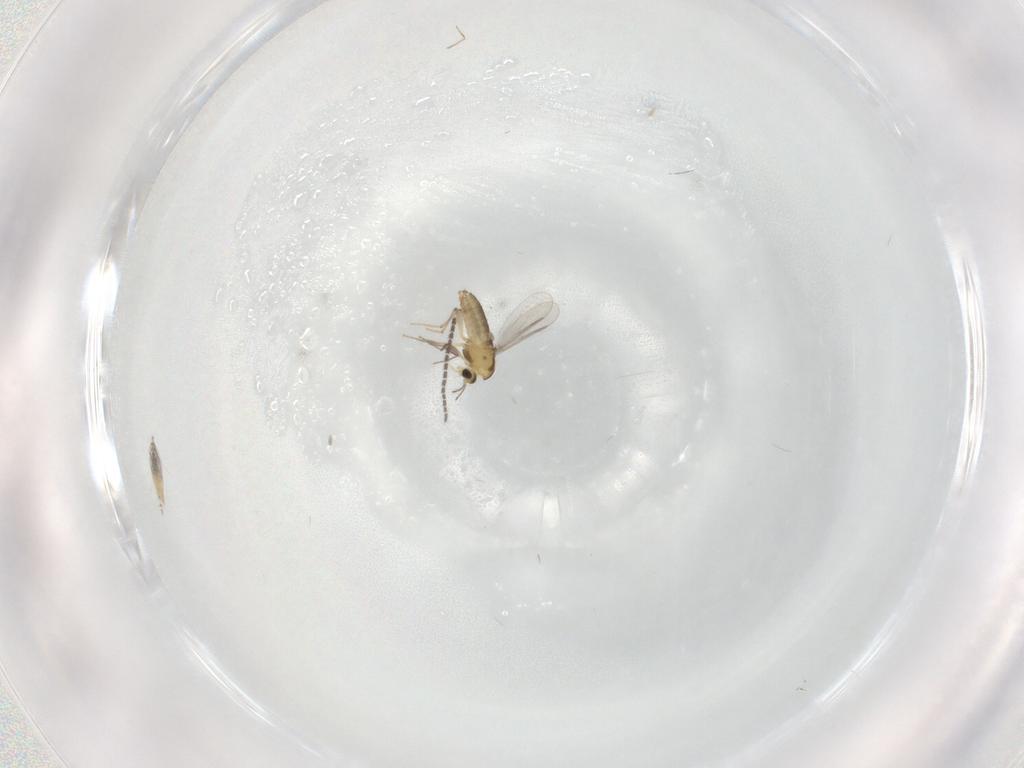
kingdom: Animalia
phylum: Arthropoda
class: Insecta
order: Diptera
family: Ceratopogonidae
